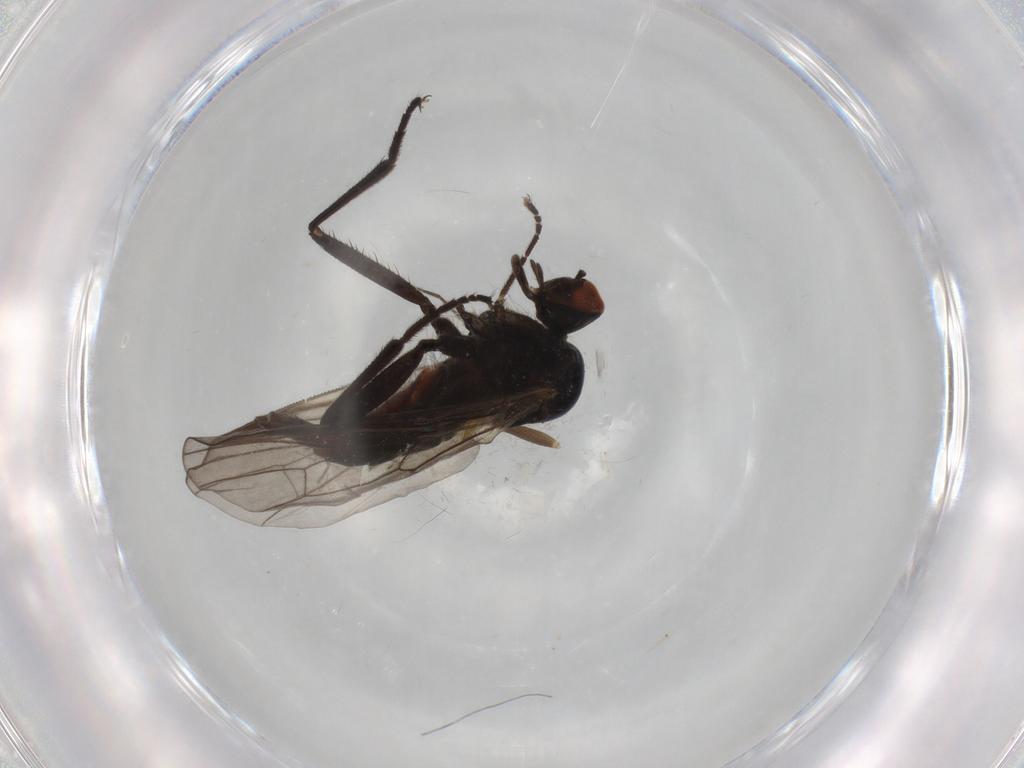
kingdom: Animalia
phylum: Arthropoda
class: Insecta
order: Diptera
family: Hybotidae
